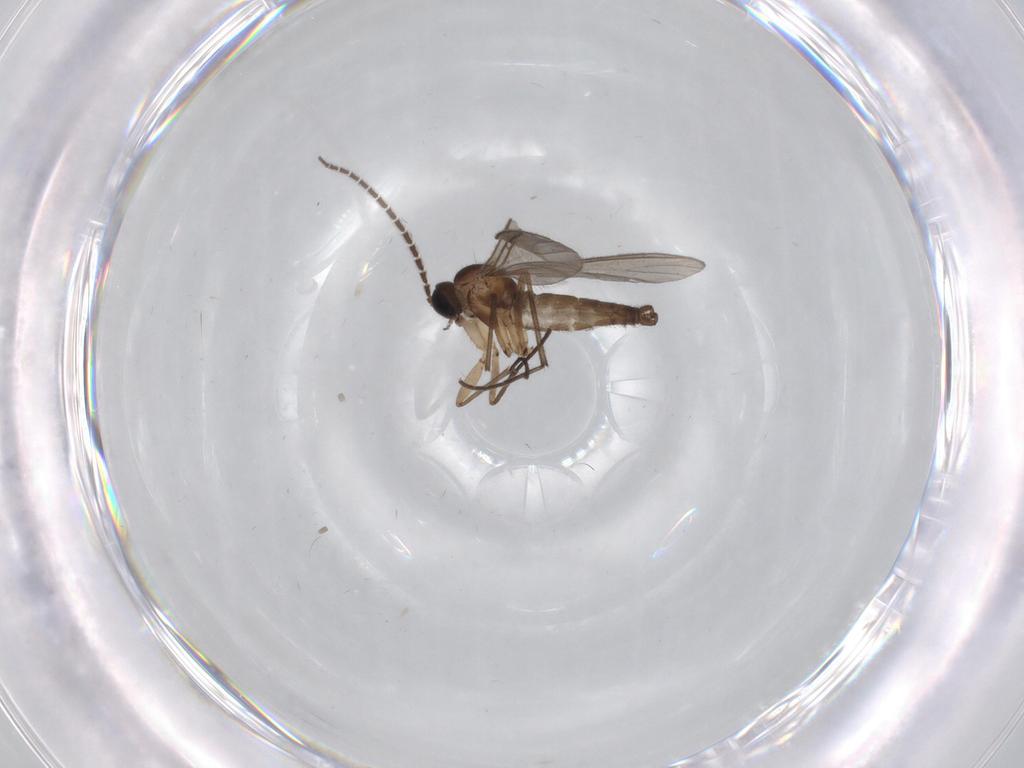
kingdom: Animalia
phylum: Arthropoda
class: Insecta
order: Diptera
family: Sciaridae
